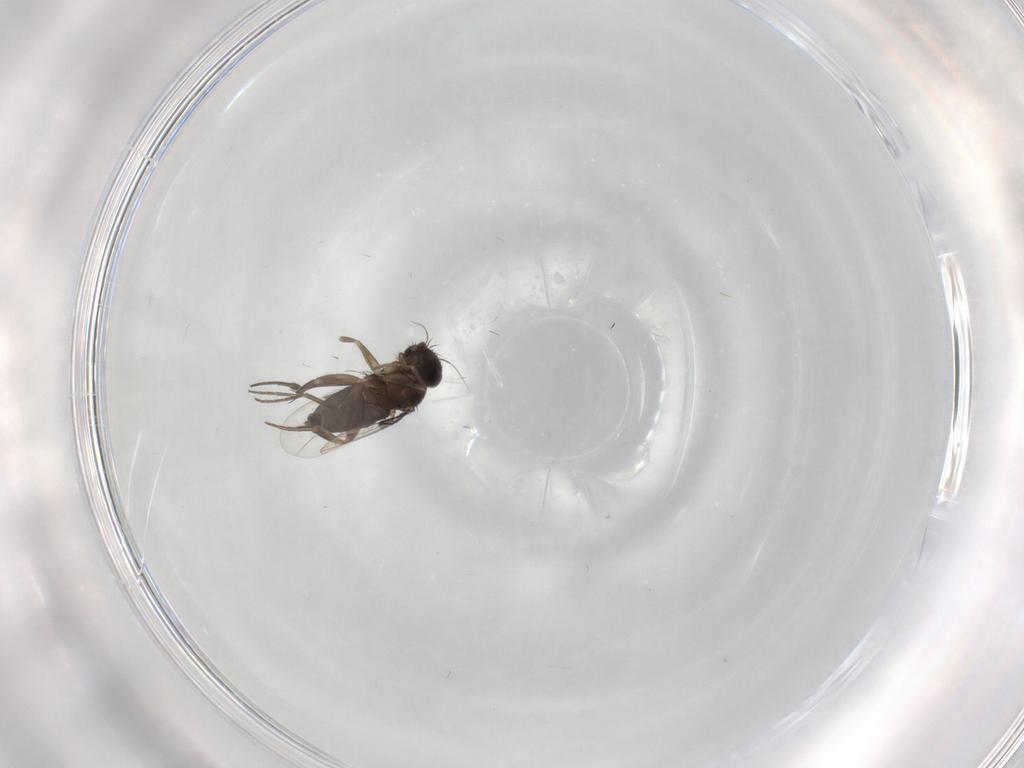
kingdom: Animalia
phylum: Arthropoda
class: Insecta
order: Diptera
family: Phoridae
